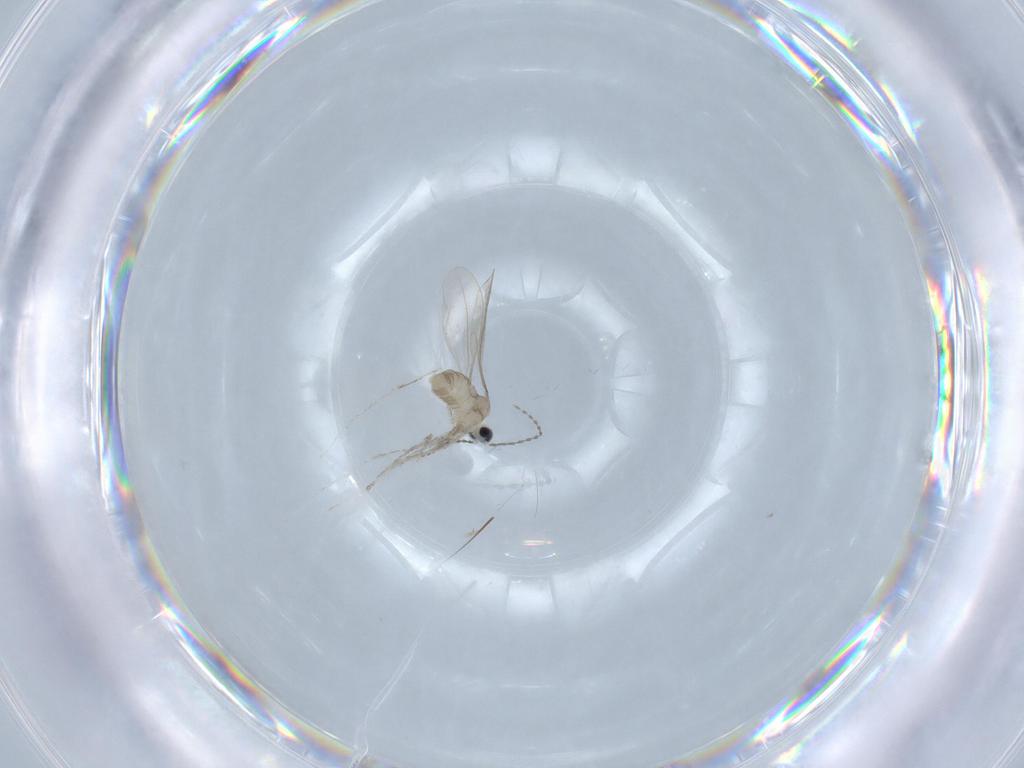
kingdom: Animalia
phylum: Arthropoda
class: Insecta
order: Diptera
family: Cecidomyiidae
